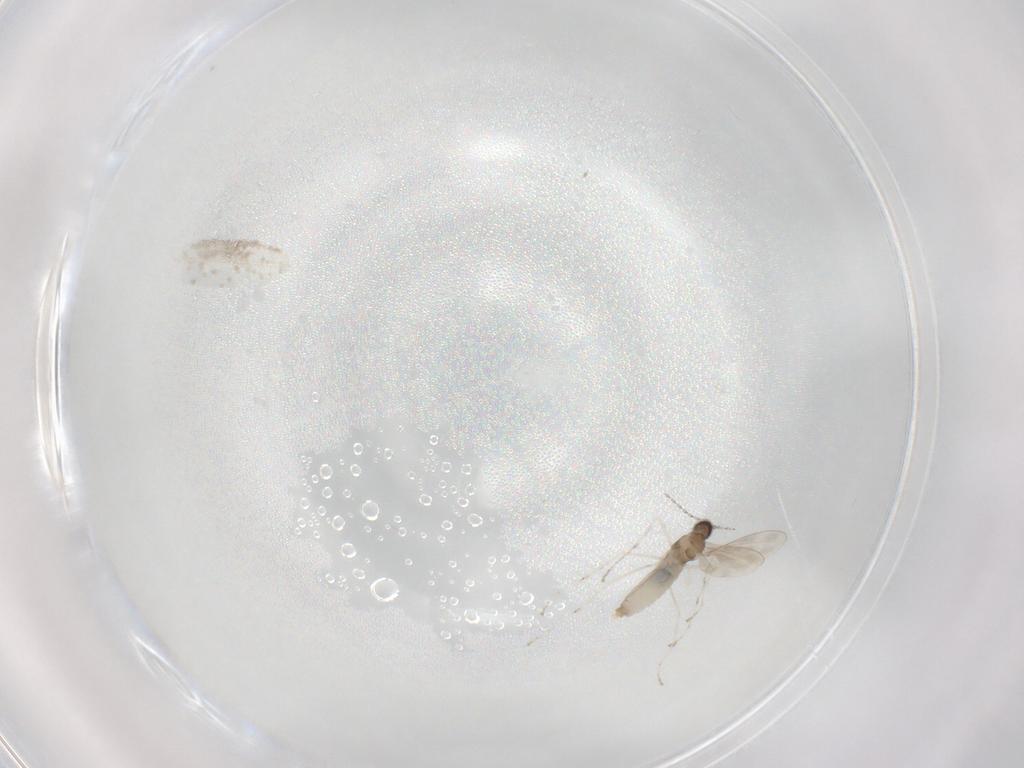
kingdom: Animalia
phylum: Arthropoda
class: Insecta
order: Diptera
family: Cecidomyiidae
